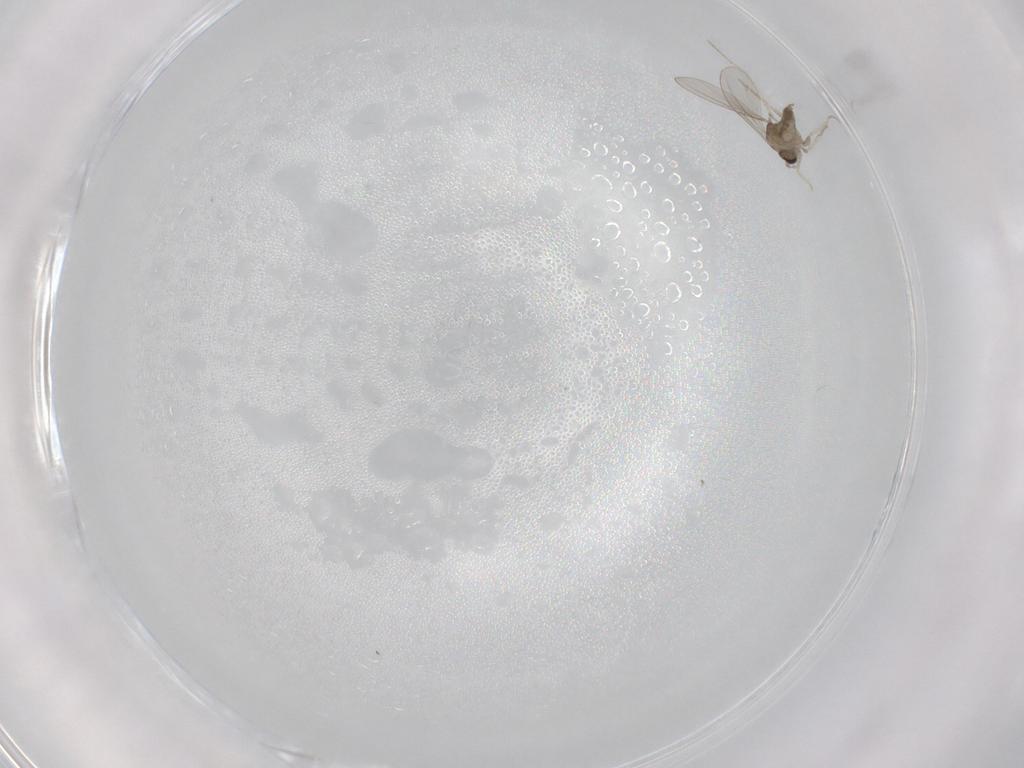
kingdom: Animalia
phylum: Arthropoda
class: Insecta
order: Diptera
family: Cecidomyiidae
